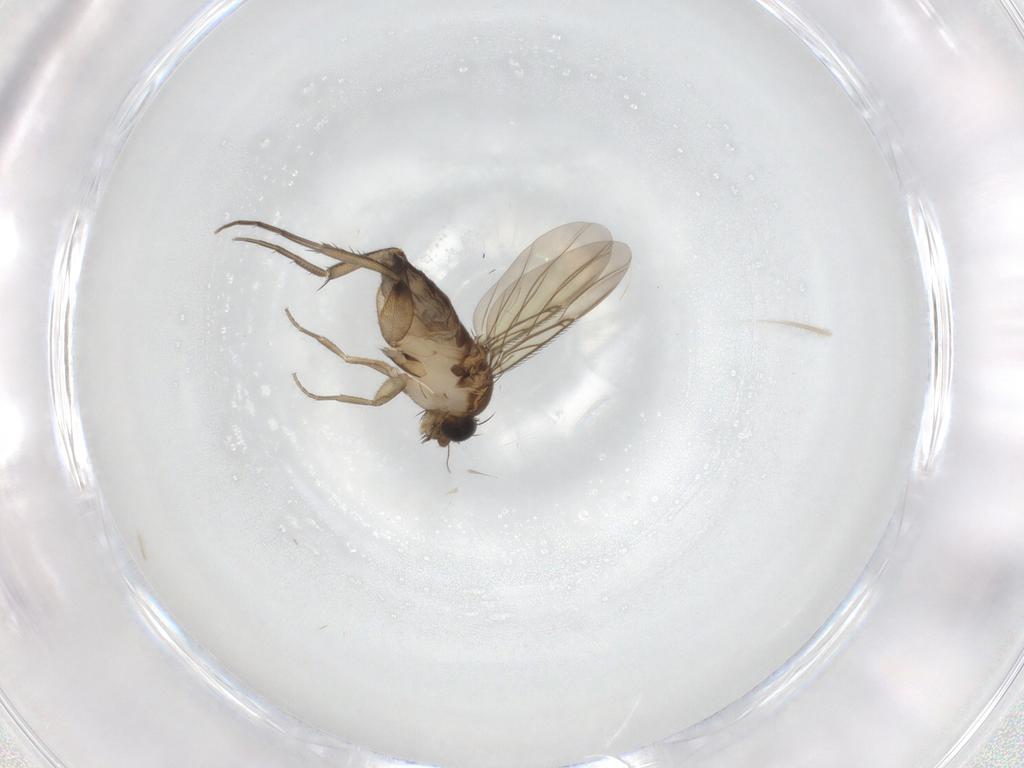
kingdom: Animalia
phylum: Arthropoda
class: Insecta
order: Diptera
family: Phoridae
